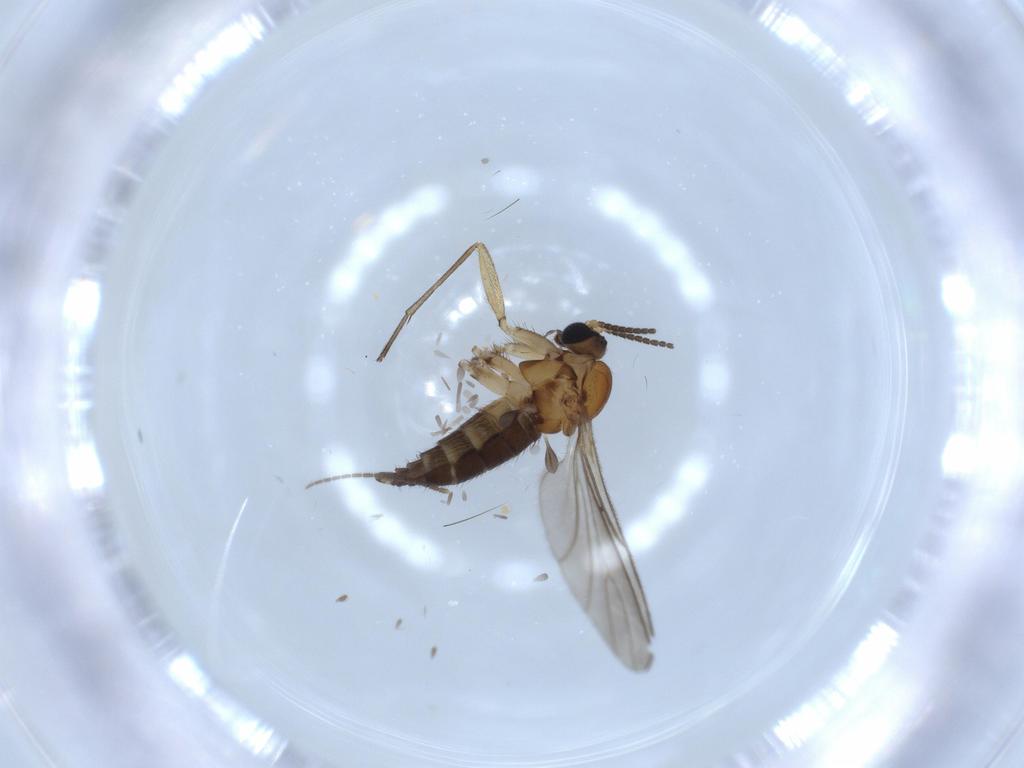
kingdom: Animalia
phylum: Arthropoda
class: Insecta
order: Diptera
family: Sciaridae
